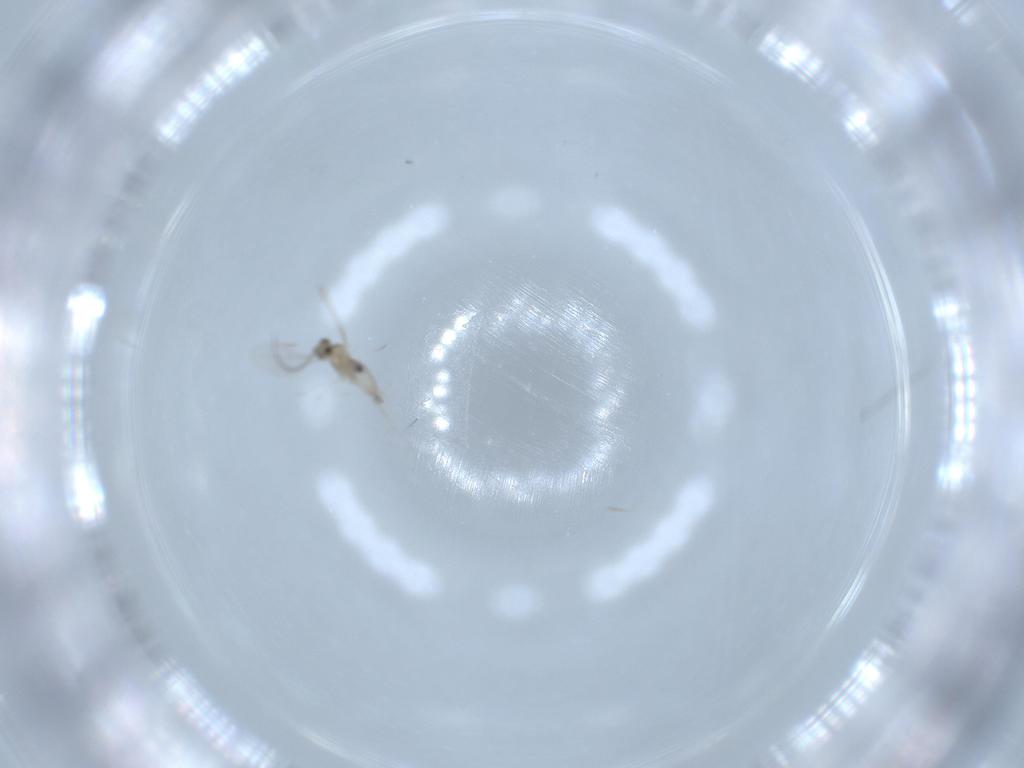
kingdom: Animalia
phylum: Arthropoda
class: Insecta
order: Diptera
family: Cecidomyiidae
